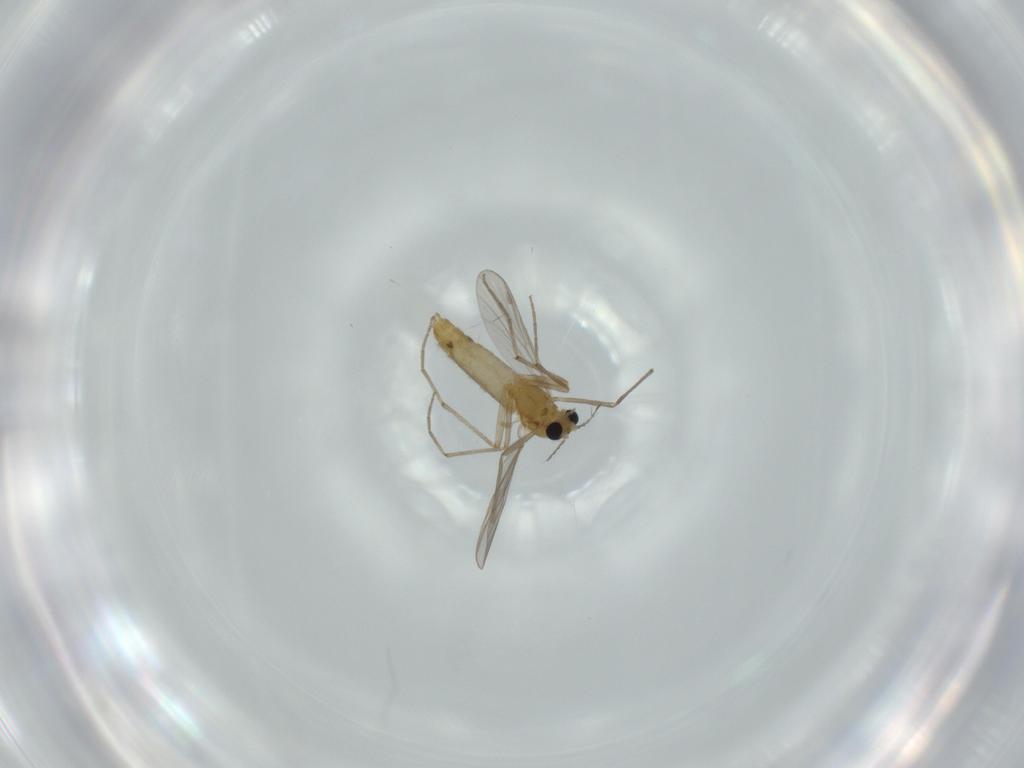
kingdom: Animalia
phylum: Arthropoda
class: Insecta
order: Diptera
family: Chironomidae
